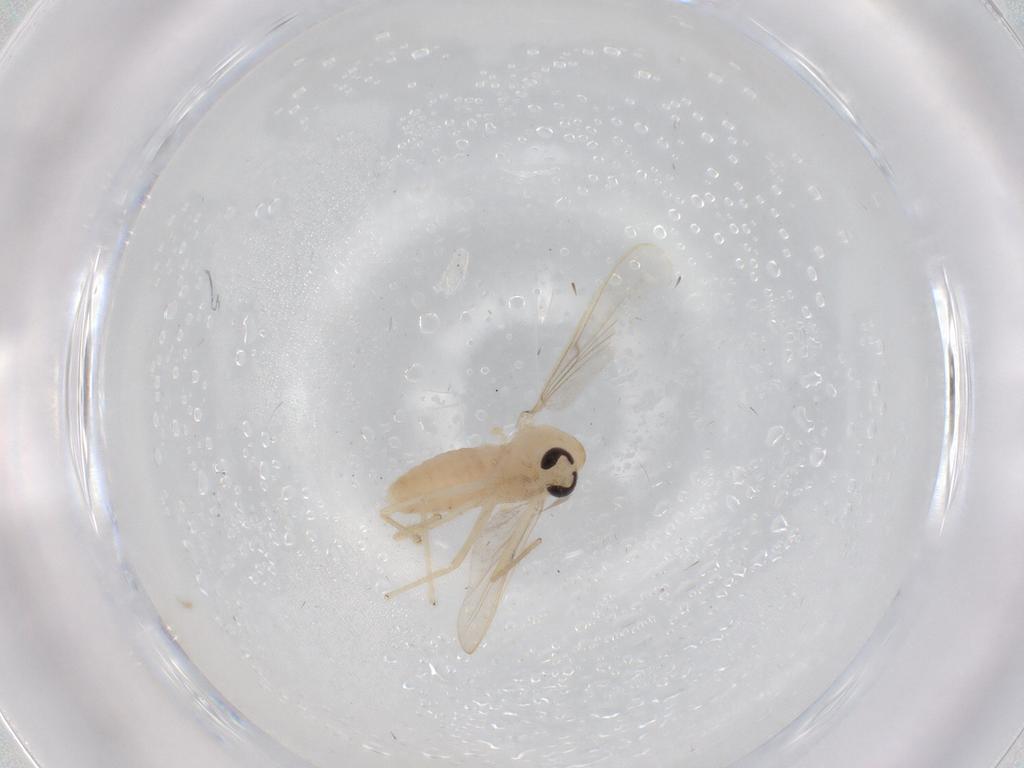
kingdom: Animalia
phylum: Arthropoda
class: Insecta
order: Diptera
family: Chironomidae
